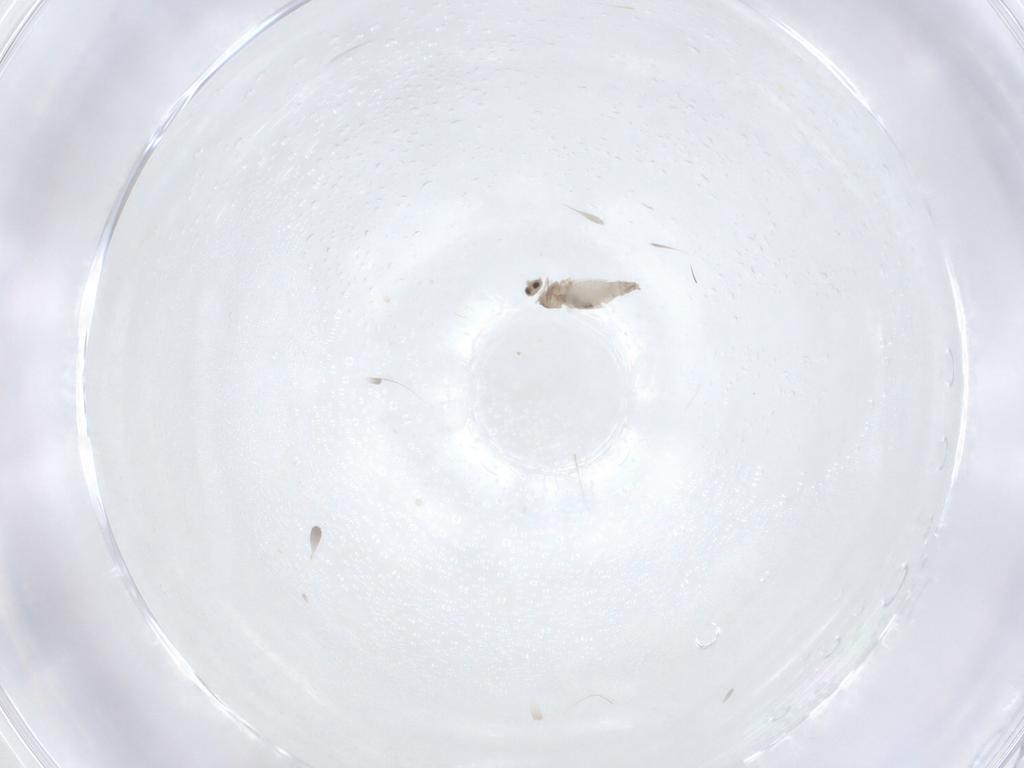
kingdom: Animalia
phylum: Arthropoda
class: Insecta
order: Diptera
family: Cecidomyiidae
